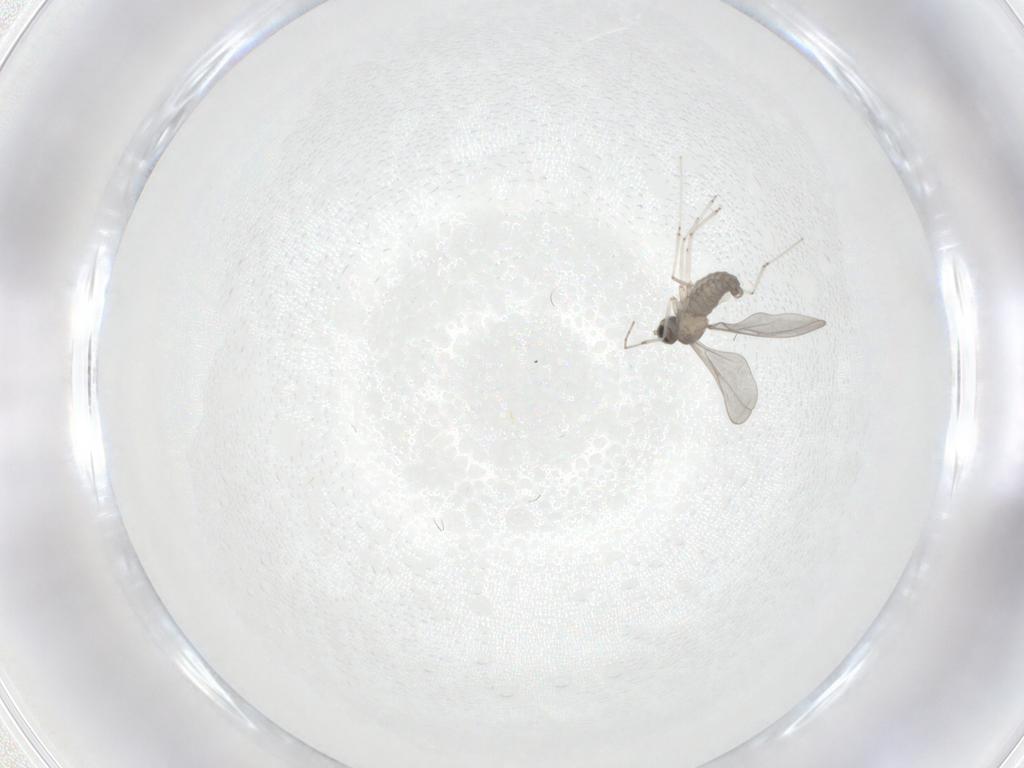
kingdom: Animalia
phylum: Arthropoda
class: Insecta
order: Diptera
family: Cecidomyiidae
